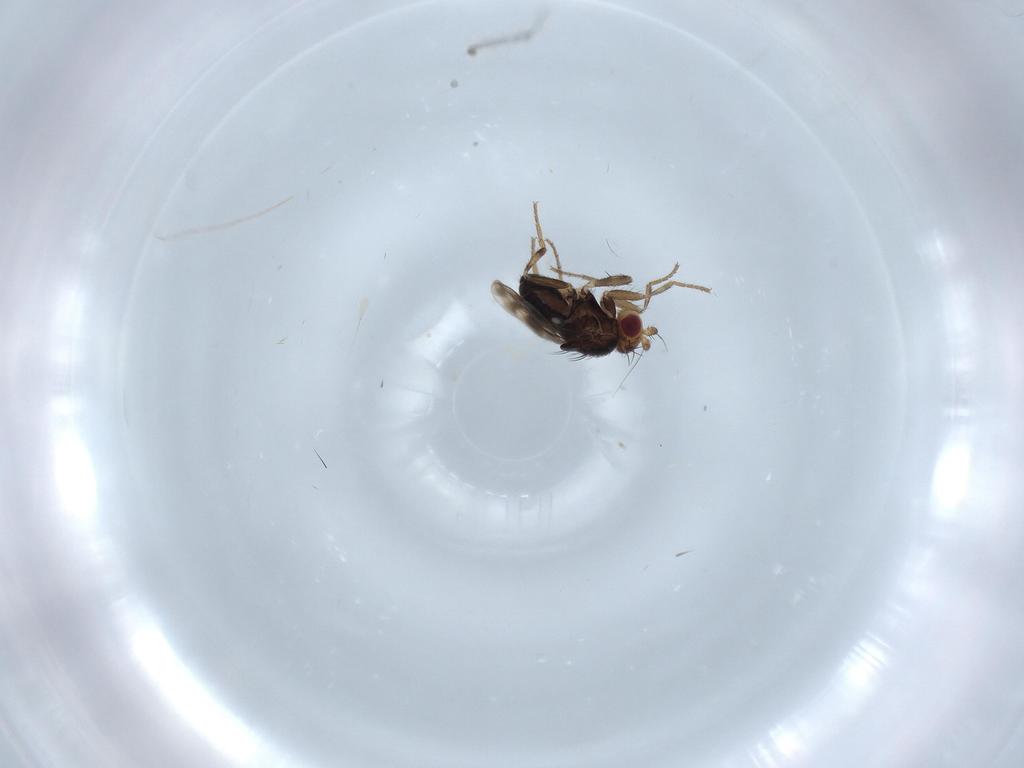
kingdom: Animalia
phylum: Arthropoda
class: Insecta
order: Diptera
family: Sphaeroceridae
